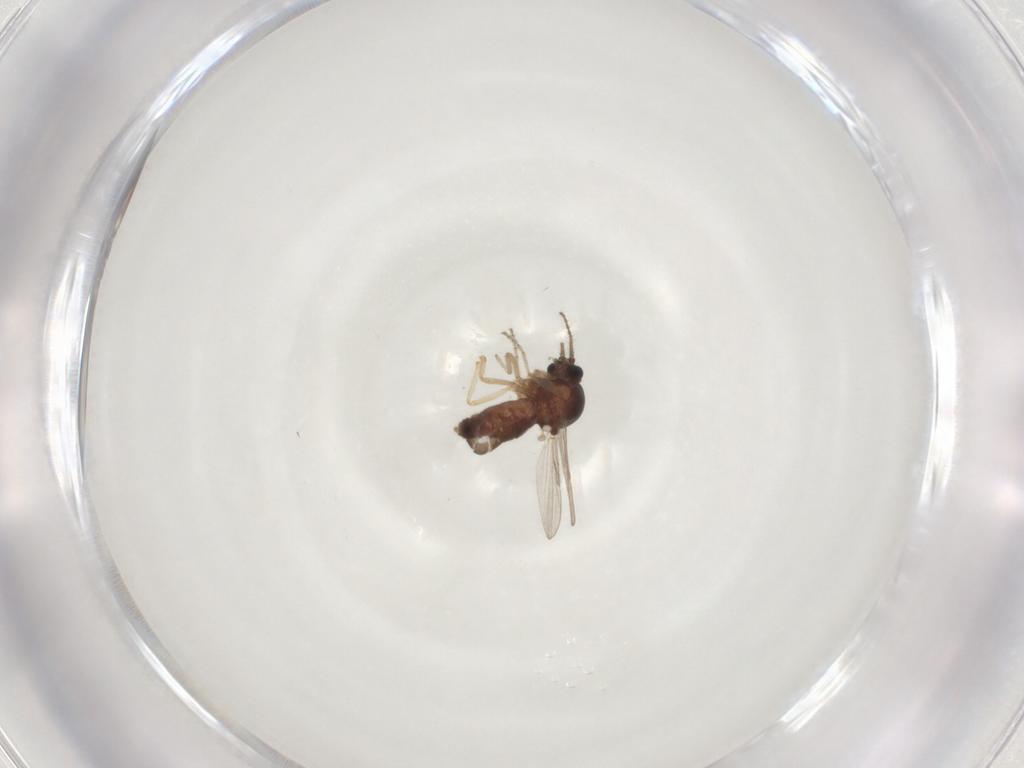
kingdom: Animalia
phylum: Arthropoda
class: Insecta
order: Diptera
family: Ceratopogonidae
